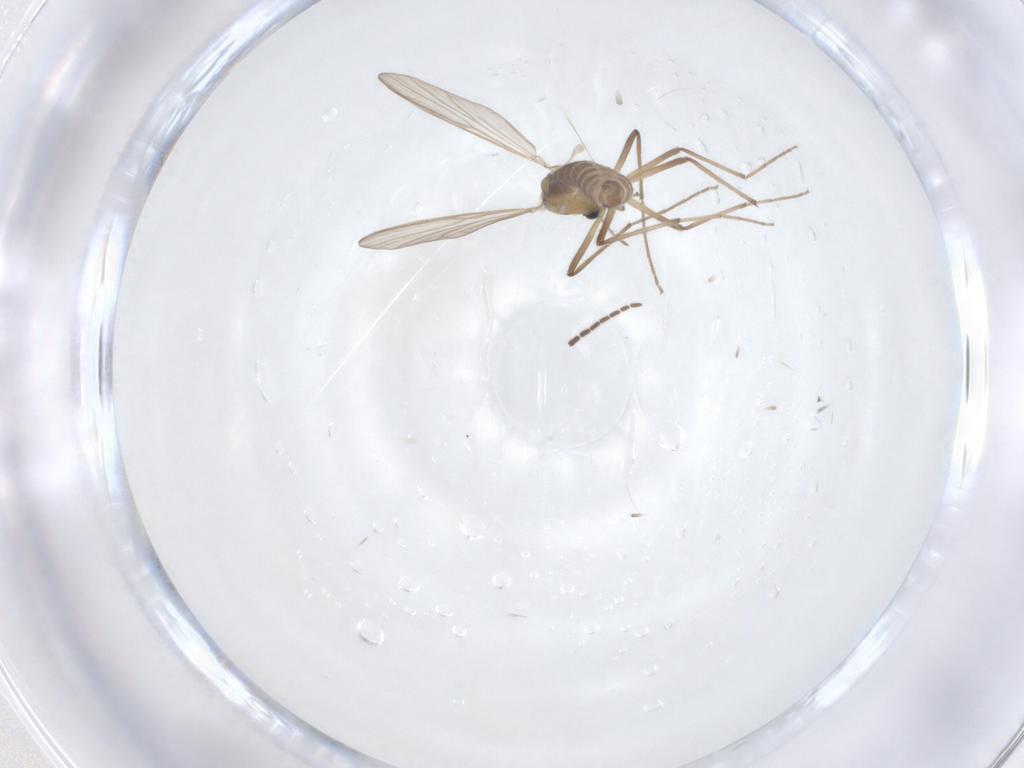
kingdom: Animalia
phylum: Arthropoda
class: Insecta
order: Diptera
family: Chironomidae
